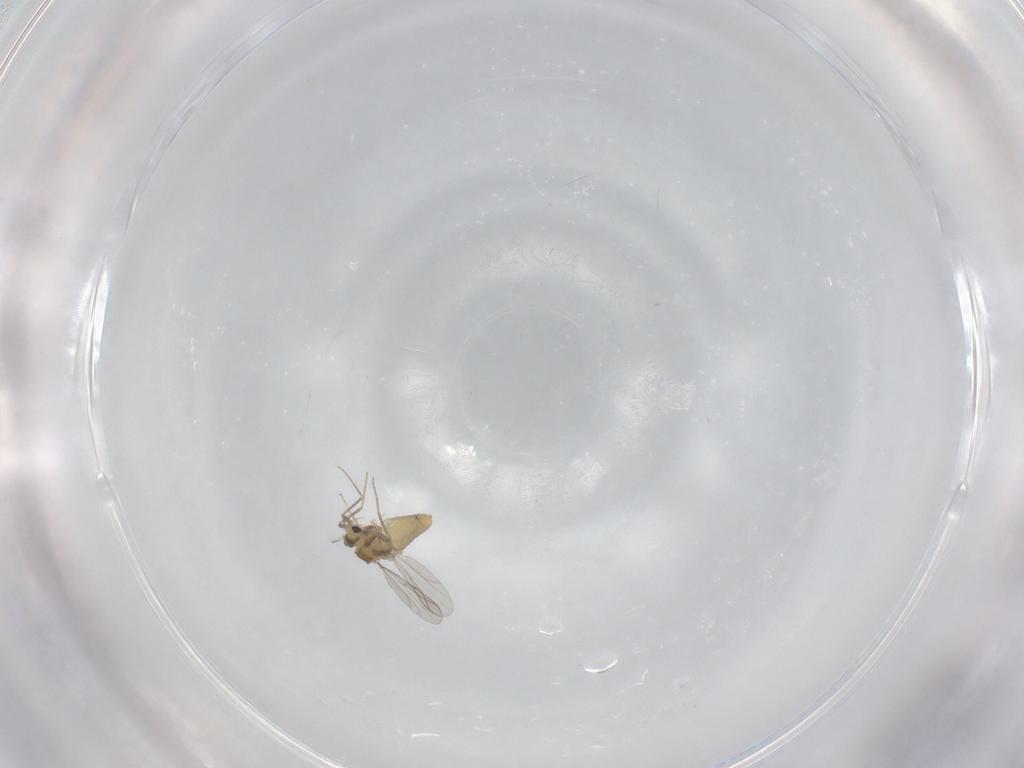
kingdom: Animalia
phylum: Arthropoda
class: Insecta
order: Diptera
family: Chironomidae
